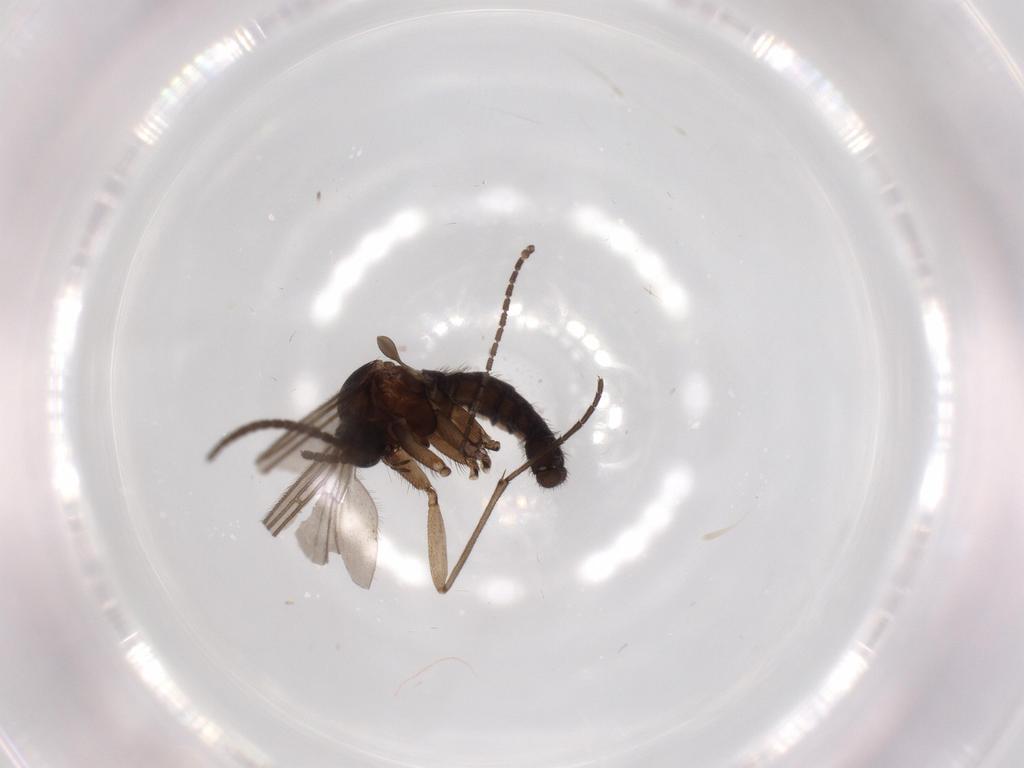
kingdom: Animalia
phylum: Arthropoda
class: Insecta
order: Diptera
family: Sciaridae
